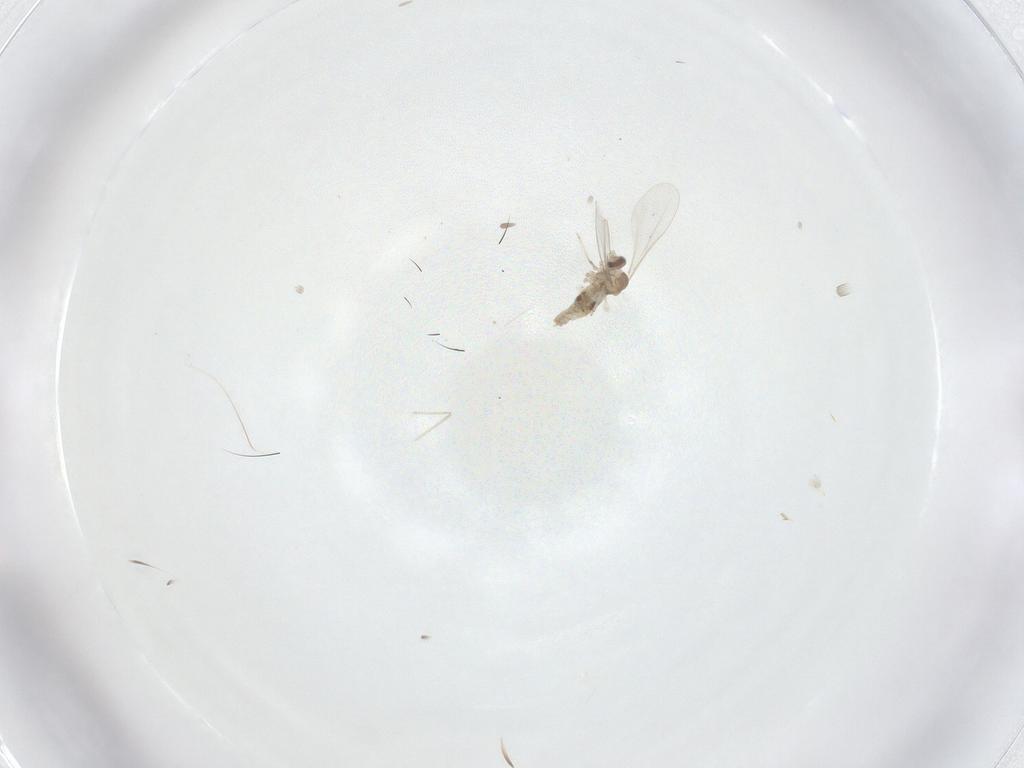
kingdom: Animalia
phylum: Arthropoda
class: Insecta
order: Diptera
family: Cecidomyiidae
